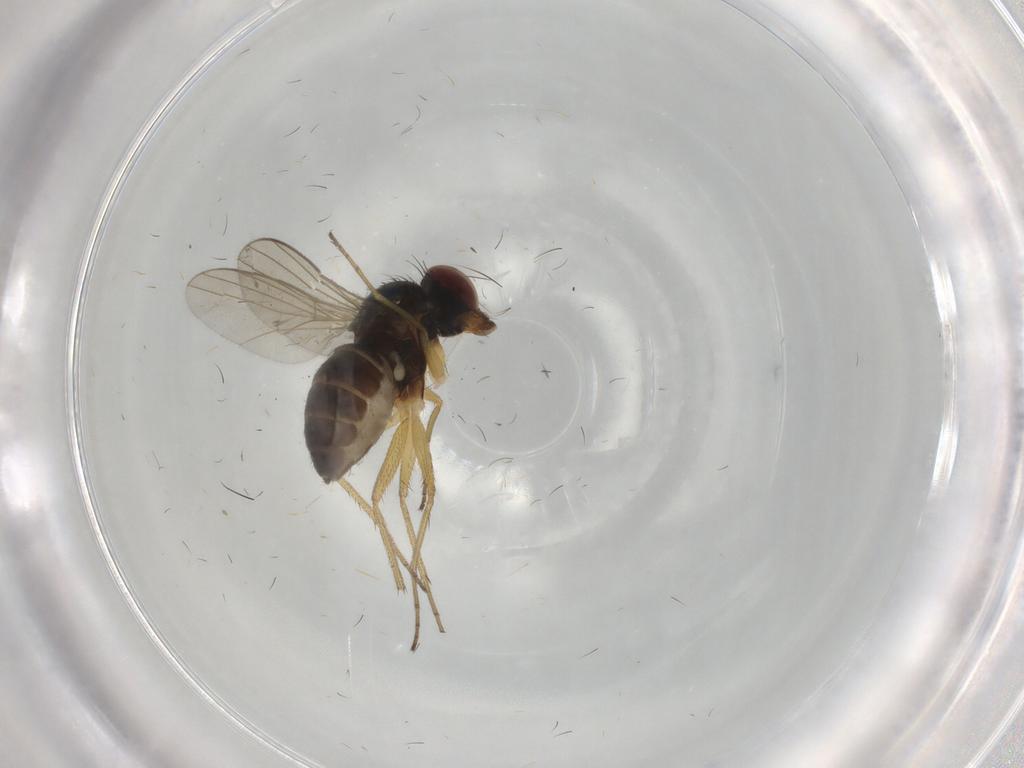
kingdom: Animalia
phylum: Arthropoda
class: Insecta
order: Diptera
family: Dolichopodidae
